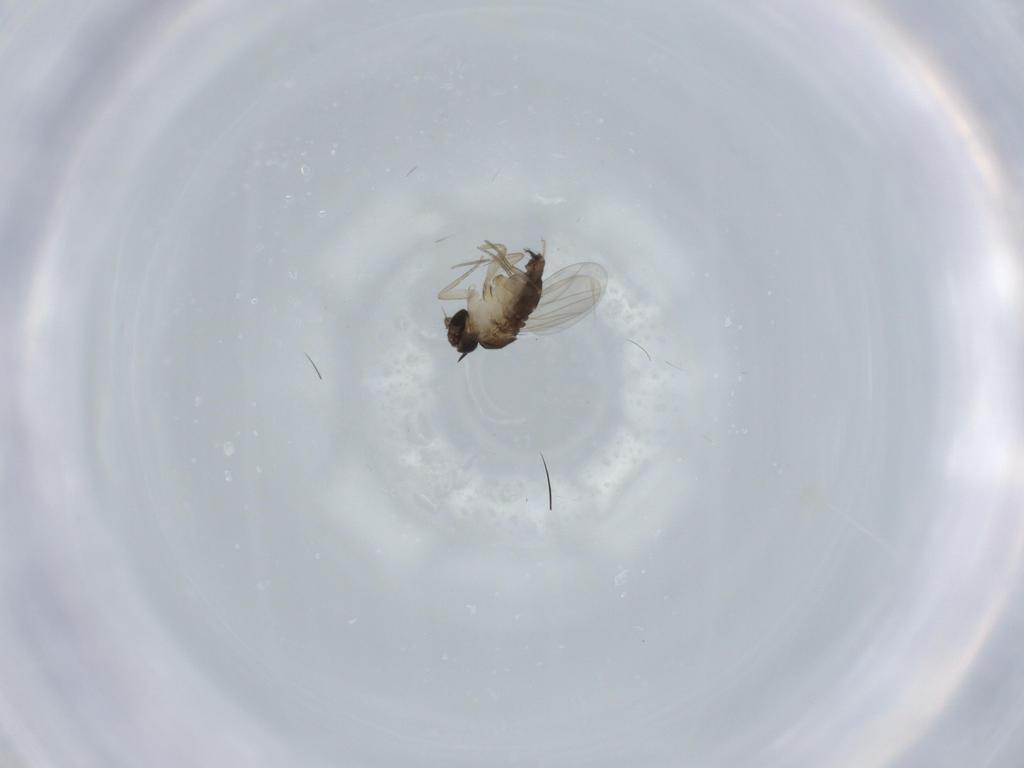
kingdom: Animalia
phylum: Arthropoda
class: Insecta
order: Diptera
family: Phoridae
